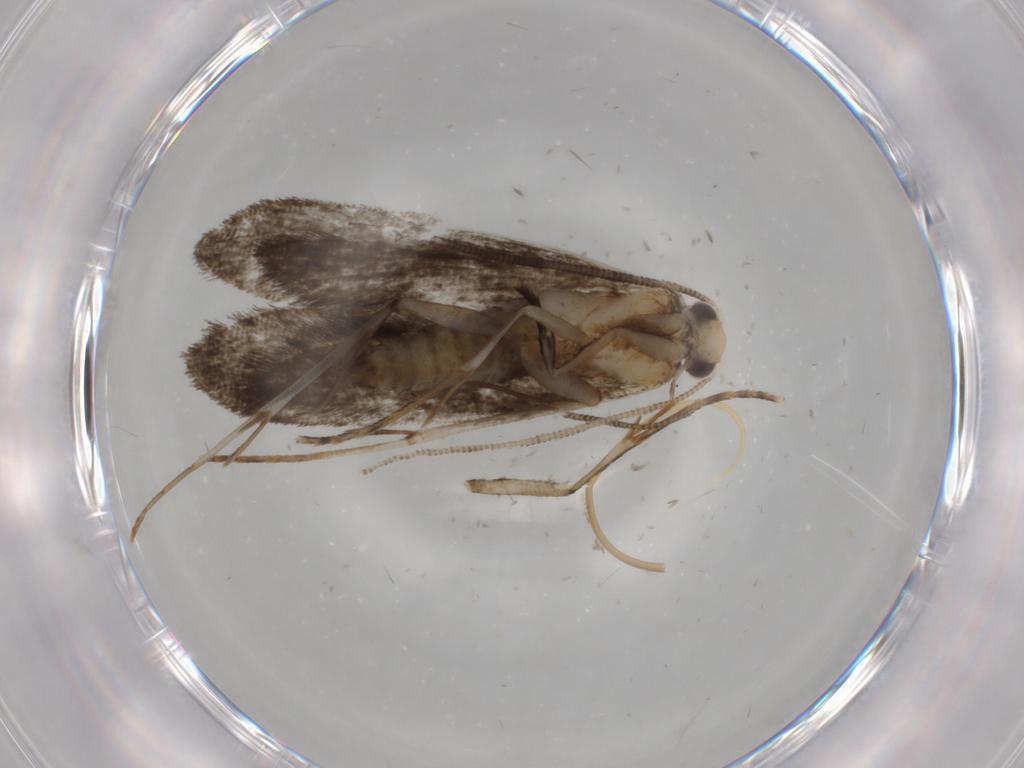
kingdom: Animalia
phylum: Arthropoda
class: Insecta
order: Lepidoptera
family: Tineidae
